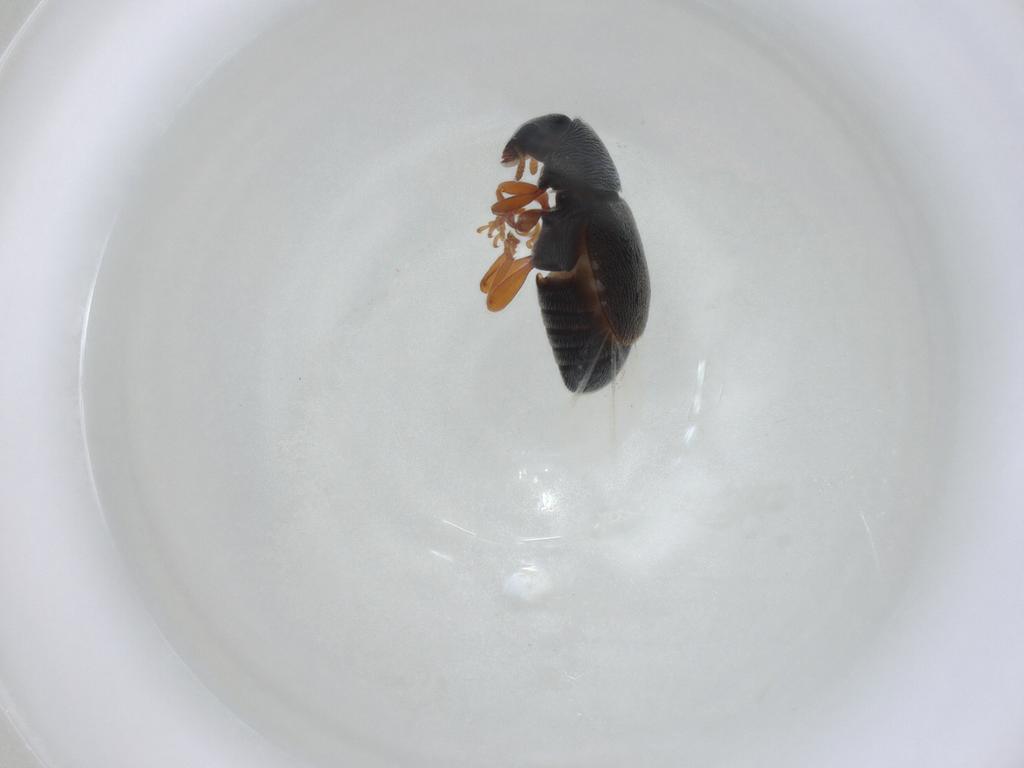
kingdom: Animalia
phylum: Arthropoda
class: Insecta
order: Coleoptera
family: Anthribidae
